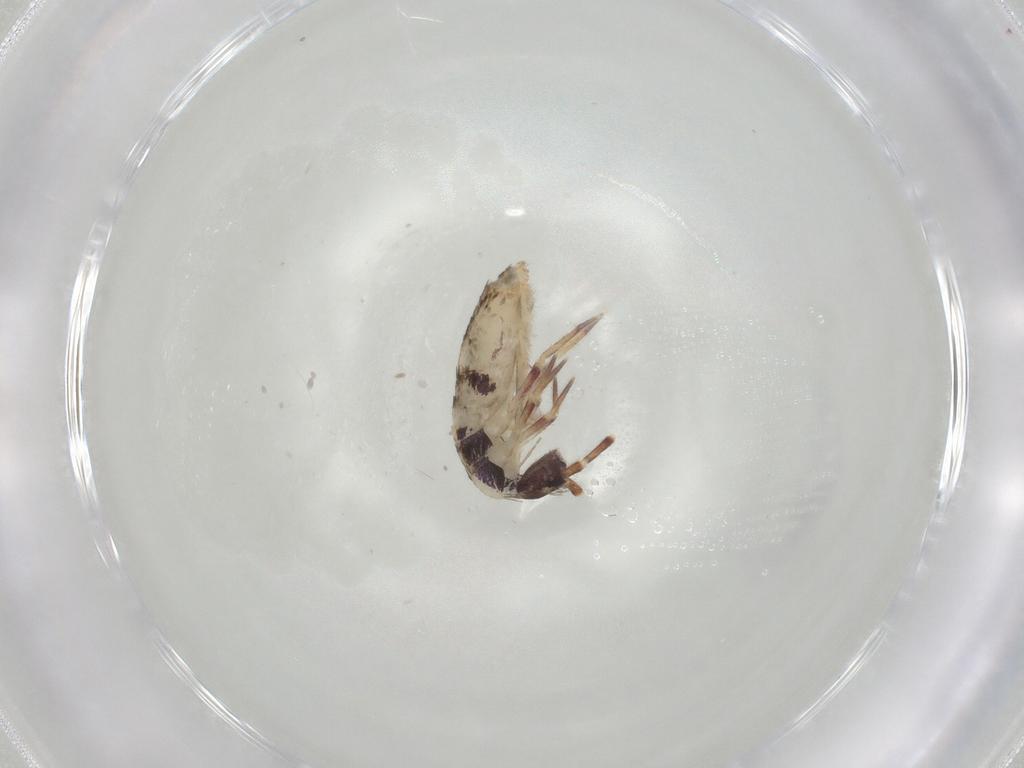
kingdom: Animalia
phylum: Arthropoda
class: Collembola
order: Entomobryomorpha
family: Entomobryidae
